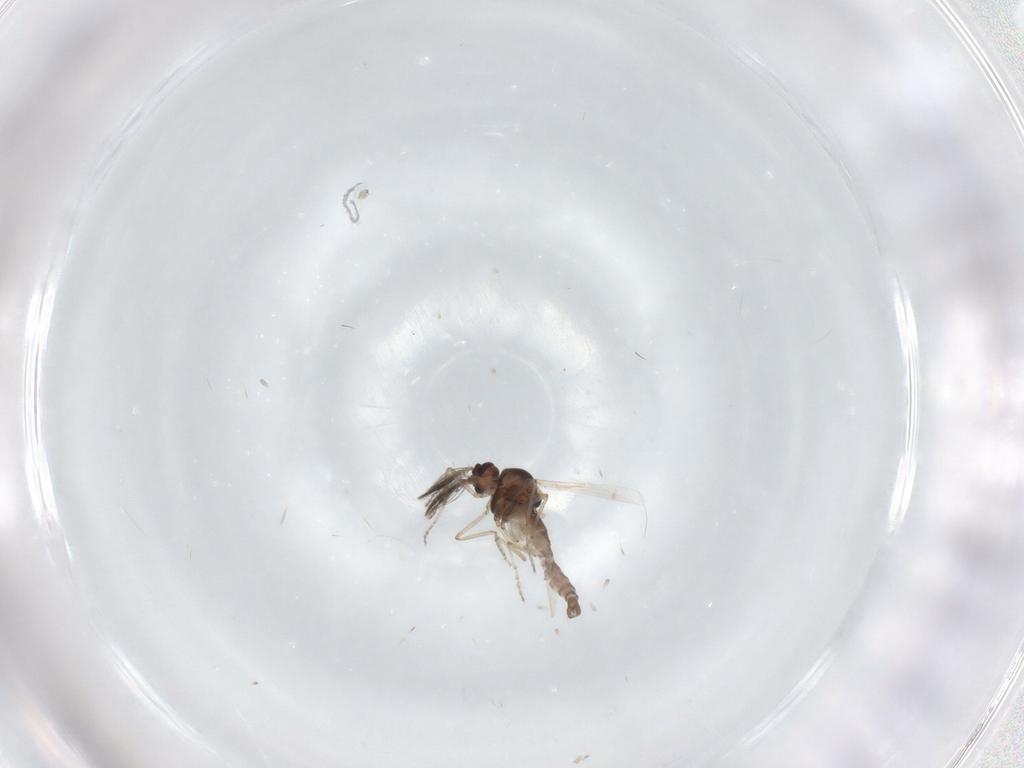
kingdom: Animalia
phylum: Arthropoda
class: Insecta
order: Diptera
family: Ceratopogonidae
